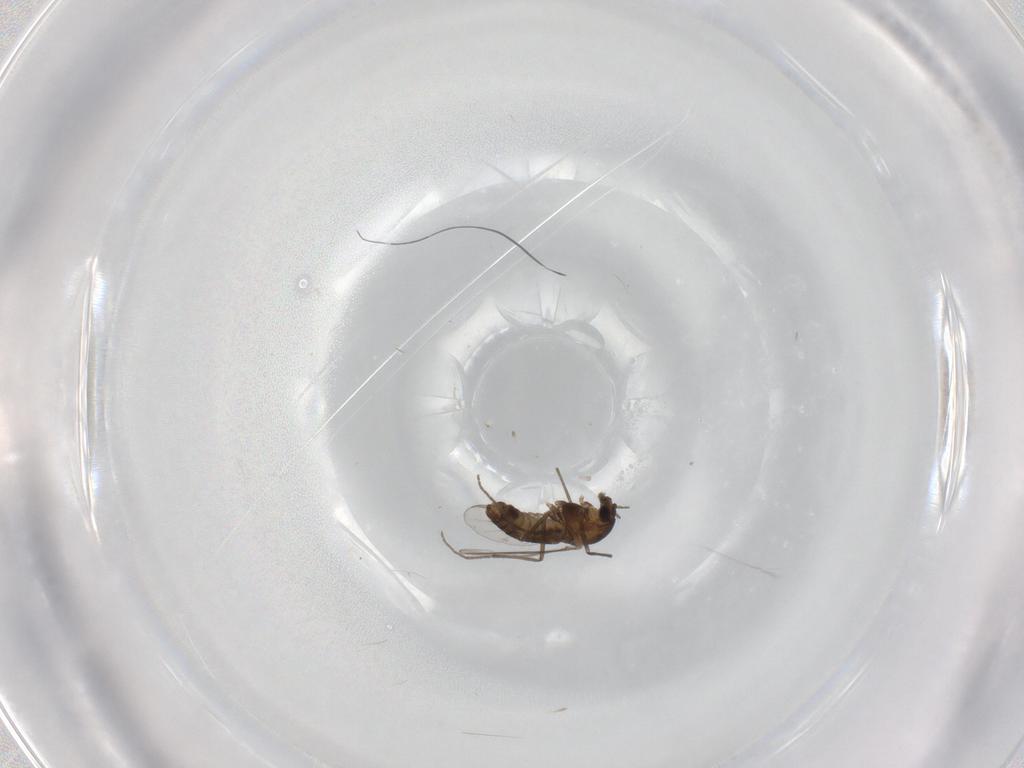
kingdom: Animalia
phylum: Arthropoda
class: Insecta
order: Diptera
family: Chironomidae
